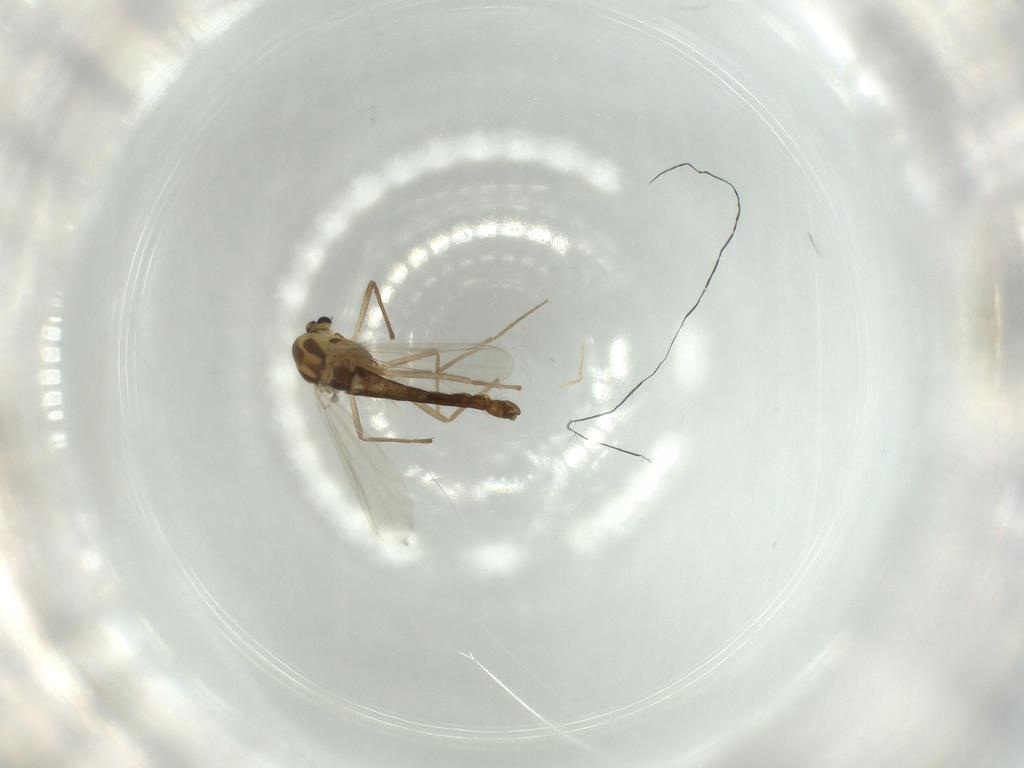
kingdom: Animalia
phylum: Arthropoda
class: Insecta
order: Diptera
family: Chironomidae
